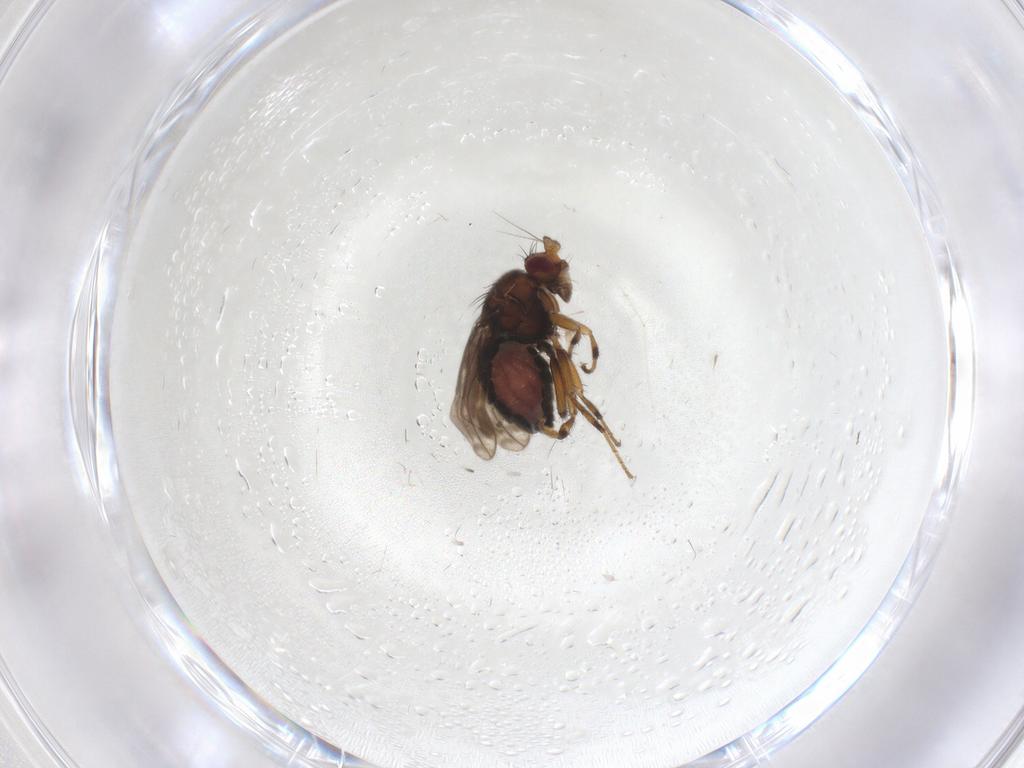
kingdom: Animalia
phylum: Arthropoda
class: Insecta
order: Diptera
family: Sphaeroceridae
